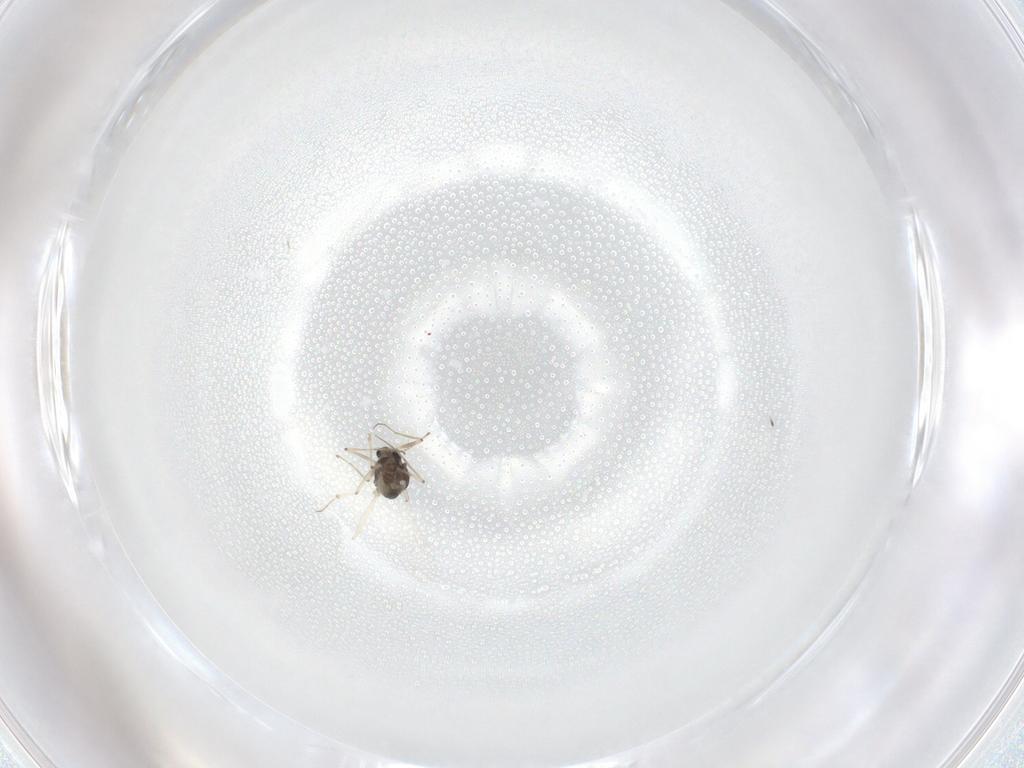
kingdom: Animalia
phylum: Arthropoda
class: Insecta
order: Diptera
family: Chironomidae
